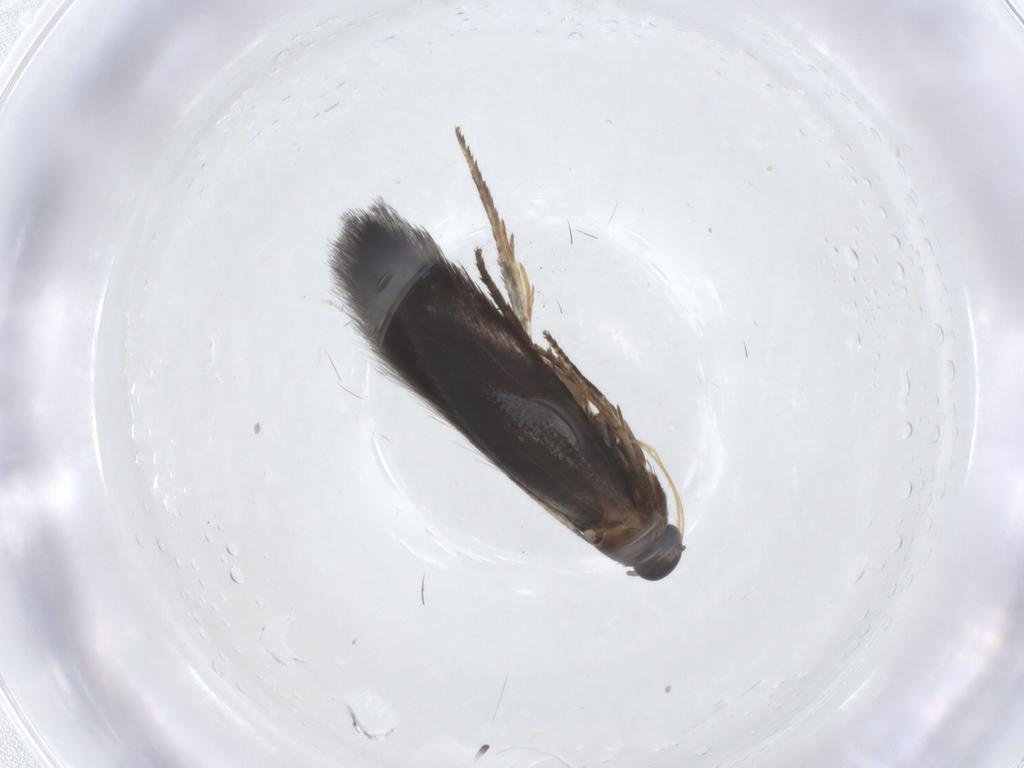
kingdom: Animalia
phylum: Arthropoda
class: Insecta
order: Lepidoptera
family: Heliozelidae
